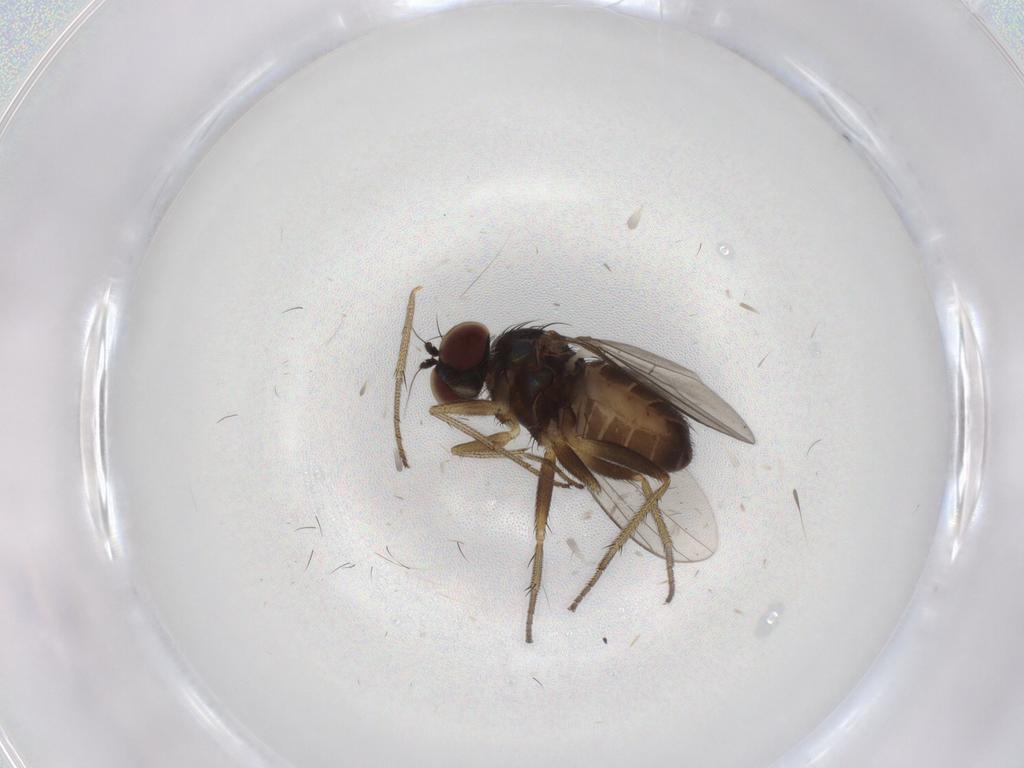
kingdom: Animalia
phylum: Arthropoda
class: Insecta
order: Diptera
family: Dolichopodidae
